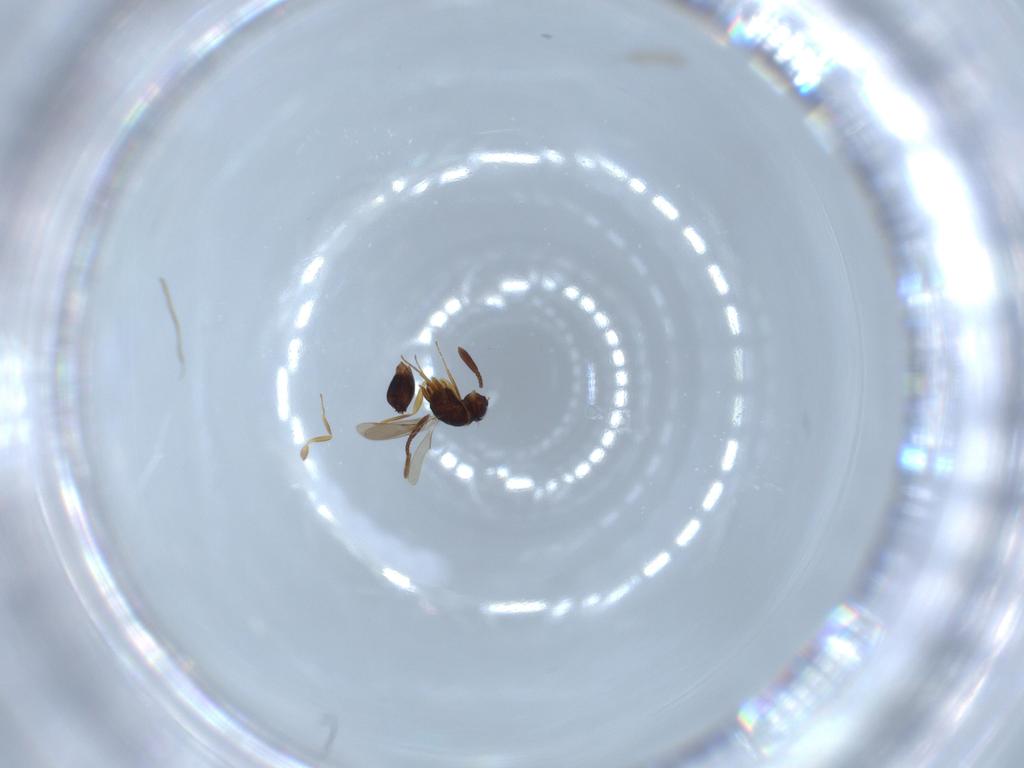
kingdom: Animalia
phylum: Arthropoda
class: Insecta
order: Hymenoptera
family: Mymaridae
